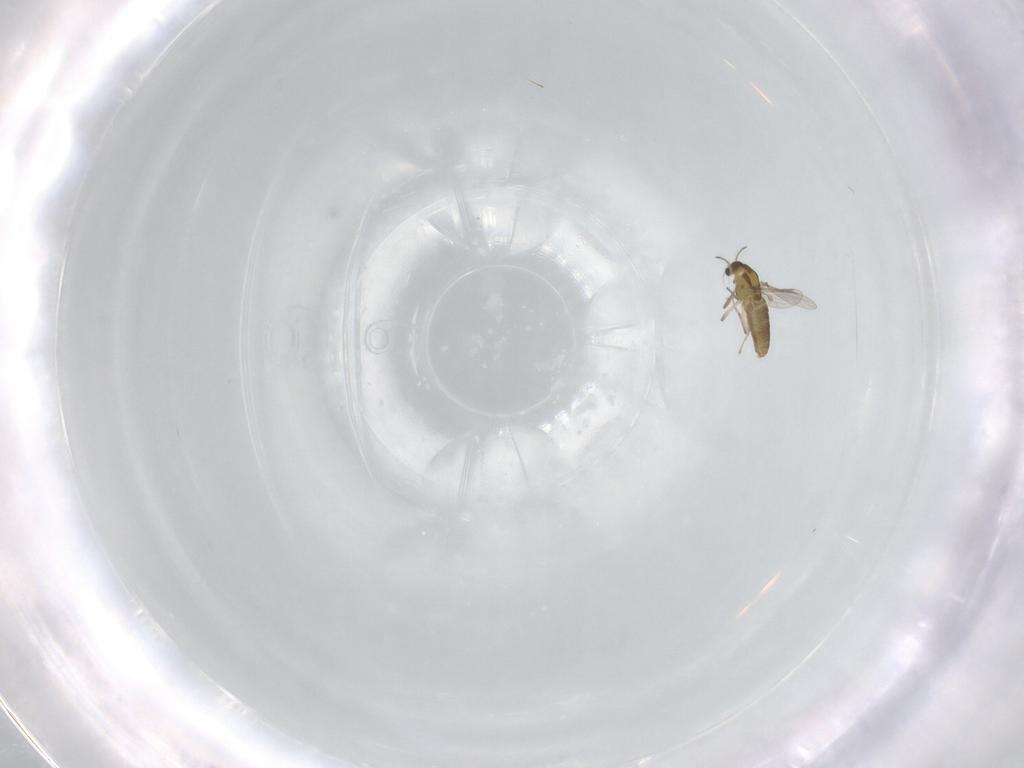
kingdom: Animalia
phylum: Arthropoda
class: Insecta
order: Diptera
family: Chironomidae
